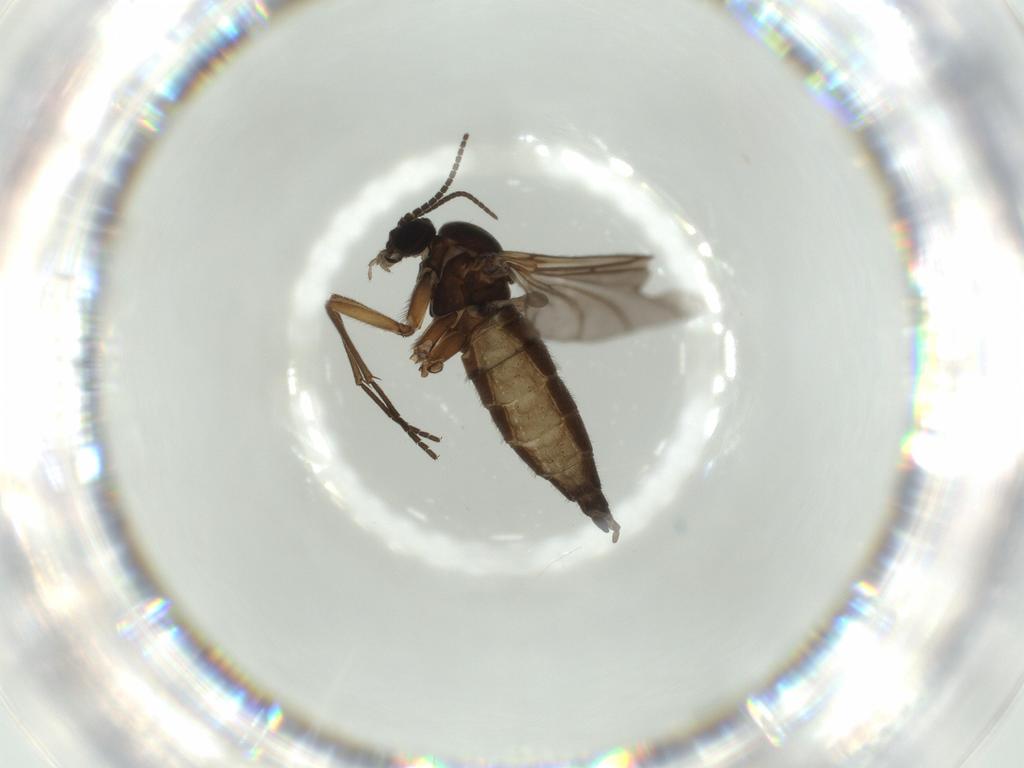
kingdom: Animalia
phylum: Arthropoda
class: Insecta
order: Diptera
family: Sciaridae
